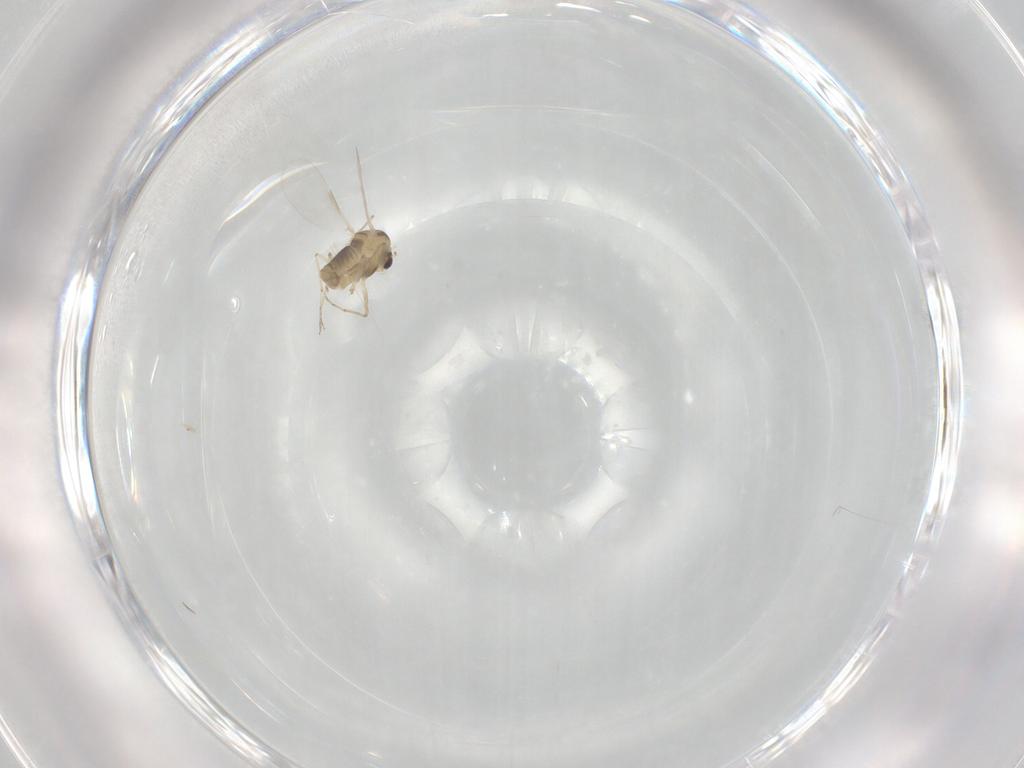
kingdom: Animalia
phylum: Arthropoda
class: Insecta
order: Diptera
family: Chironomidae
